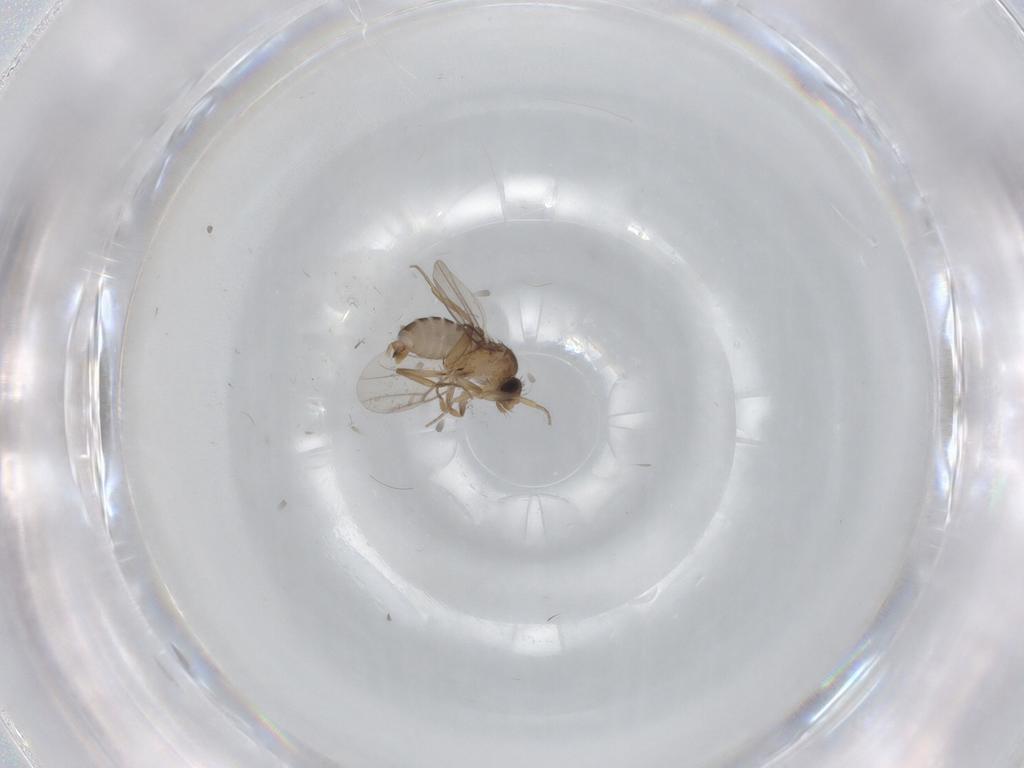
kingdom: Animalia
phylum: Arthropoda
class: Insecta
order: Diptera
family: Phoridae
